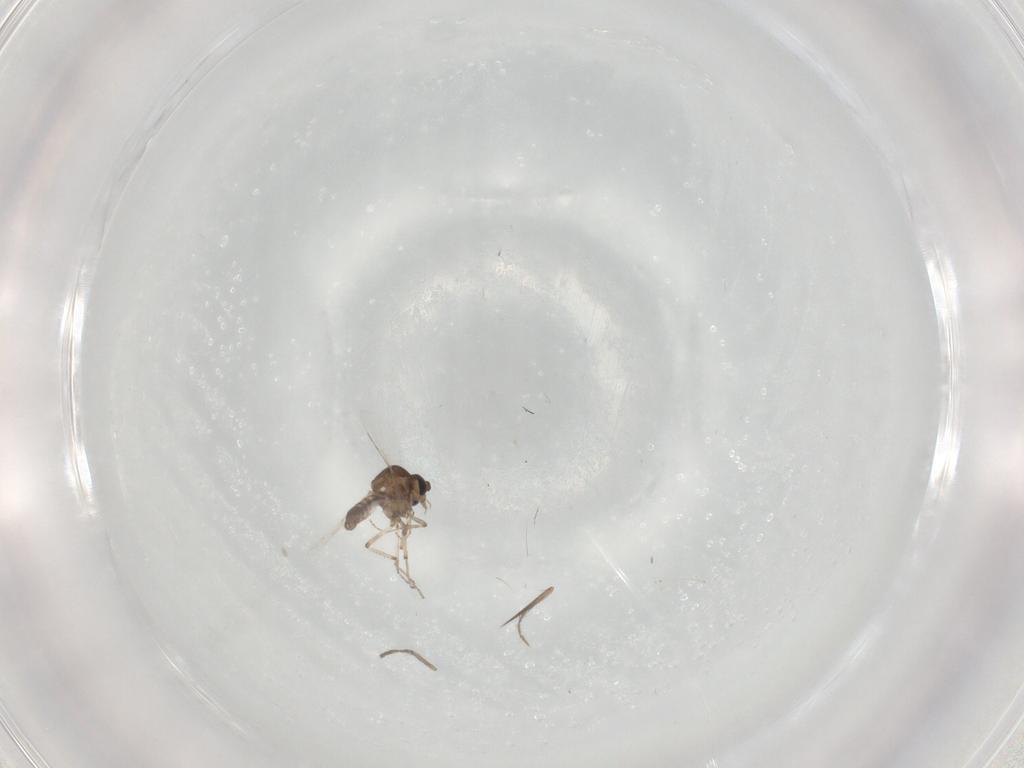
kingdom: Animalia
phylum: Arthropoda
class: Insecta
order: Diptera
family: Ceratopogonidae
